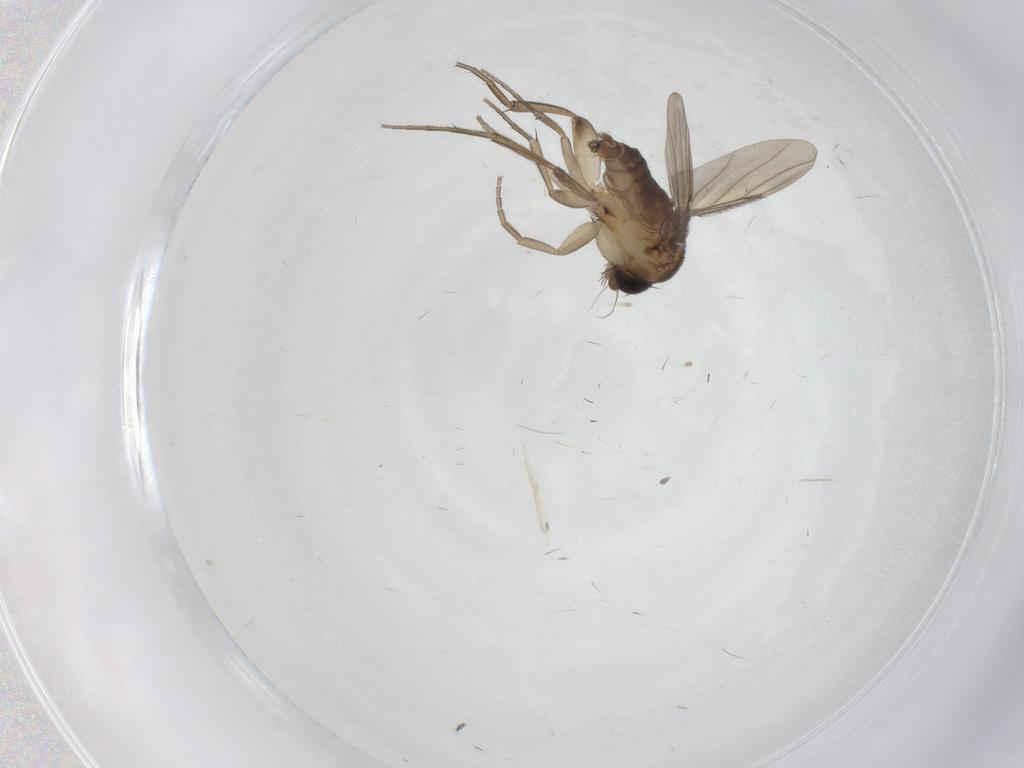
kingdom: Animalia
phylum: Arthropoda
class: Insecta
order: Diptera
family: Phoridae
